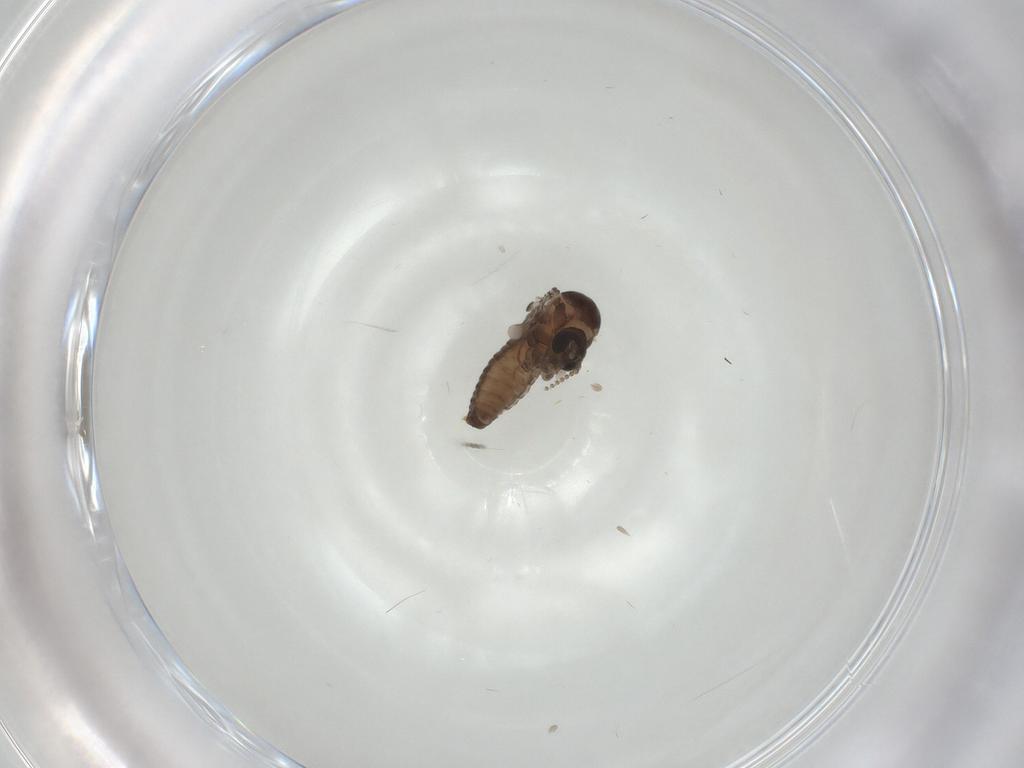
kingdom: Animalia
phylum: Arthropoda
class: Insecta
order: Diptera
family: Psychodidae
